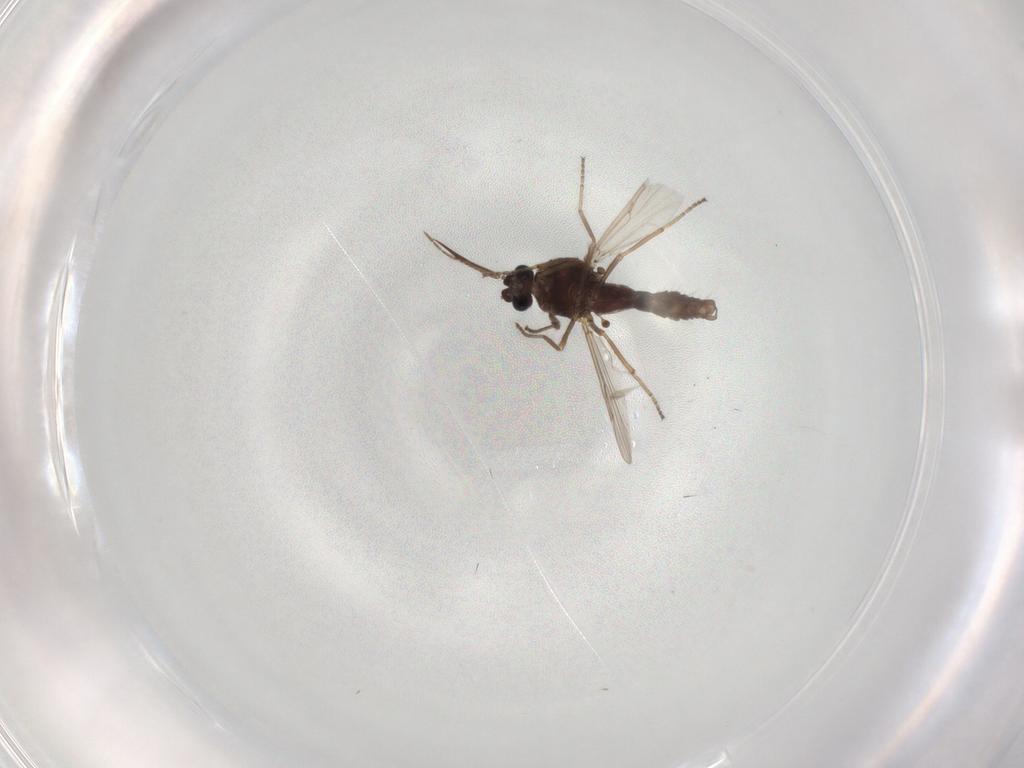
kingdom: Animalia
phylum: Arthropoda
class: Insecta
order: Diptera
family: Ceratopogonidae
